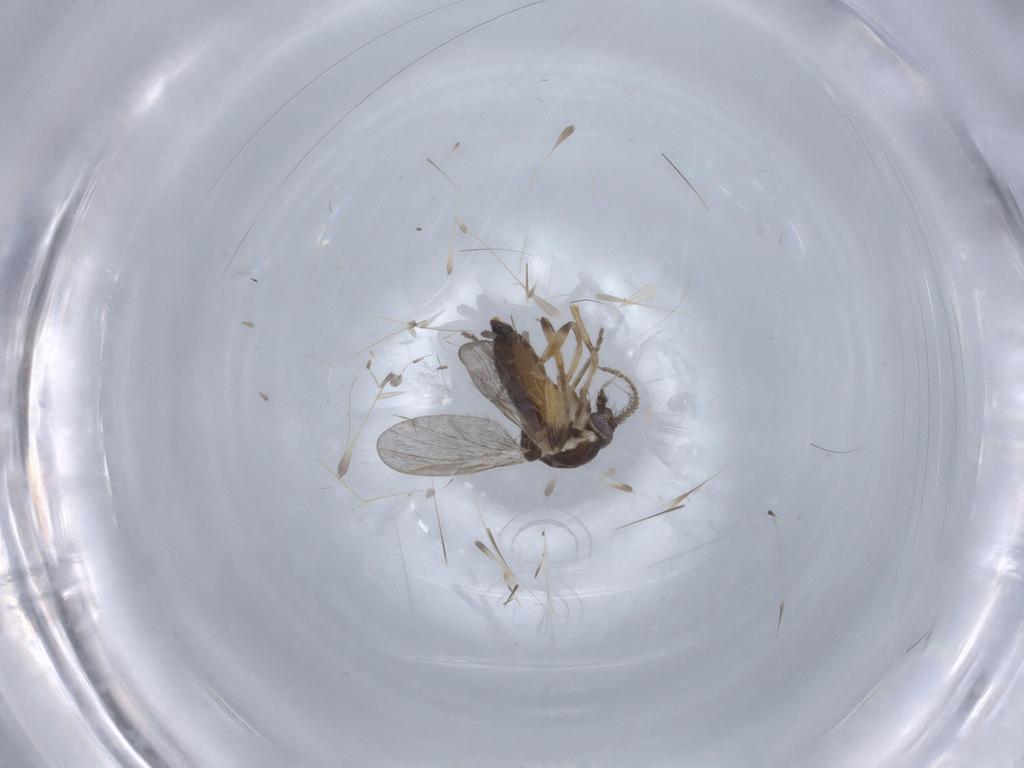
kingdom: Animalia
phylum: Arthropoda
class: Insecta
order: Diptera
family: Ceratopogonidae
